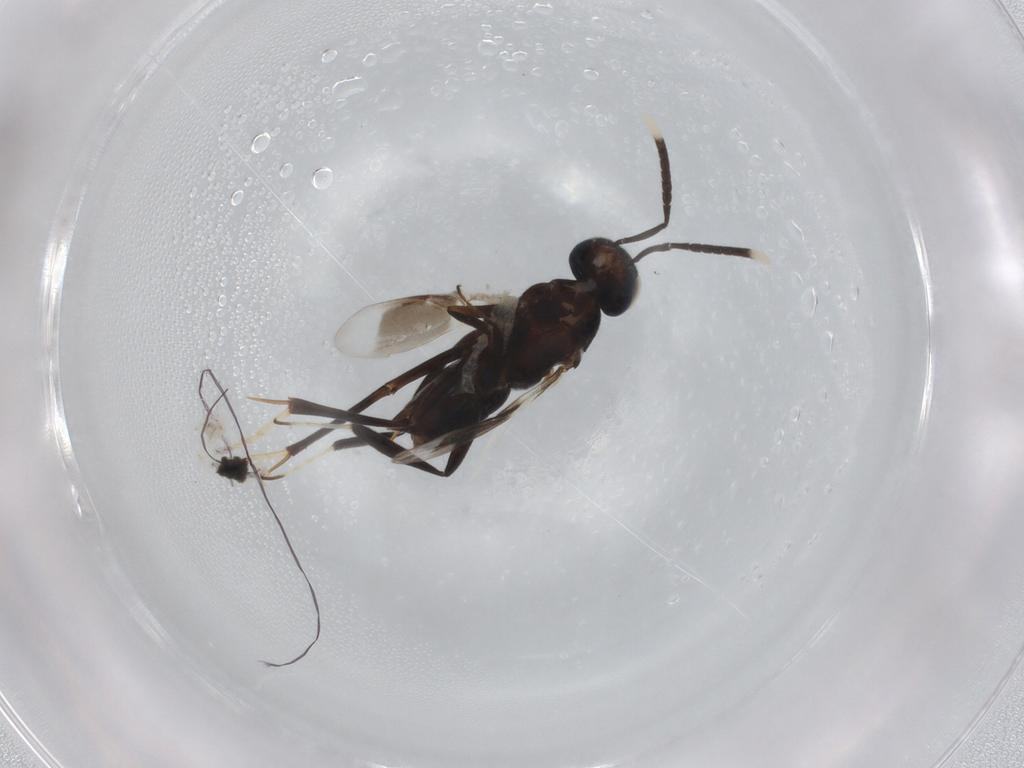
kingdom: Animalia
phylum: Arthropoda
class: Insecta
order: Hymenoptera
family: Encyrtidae
